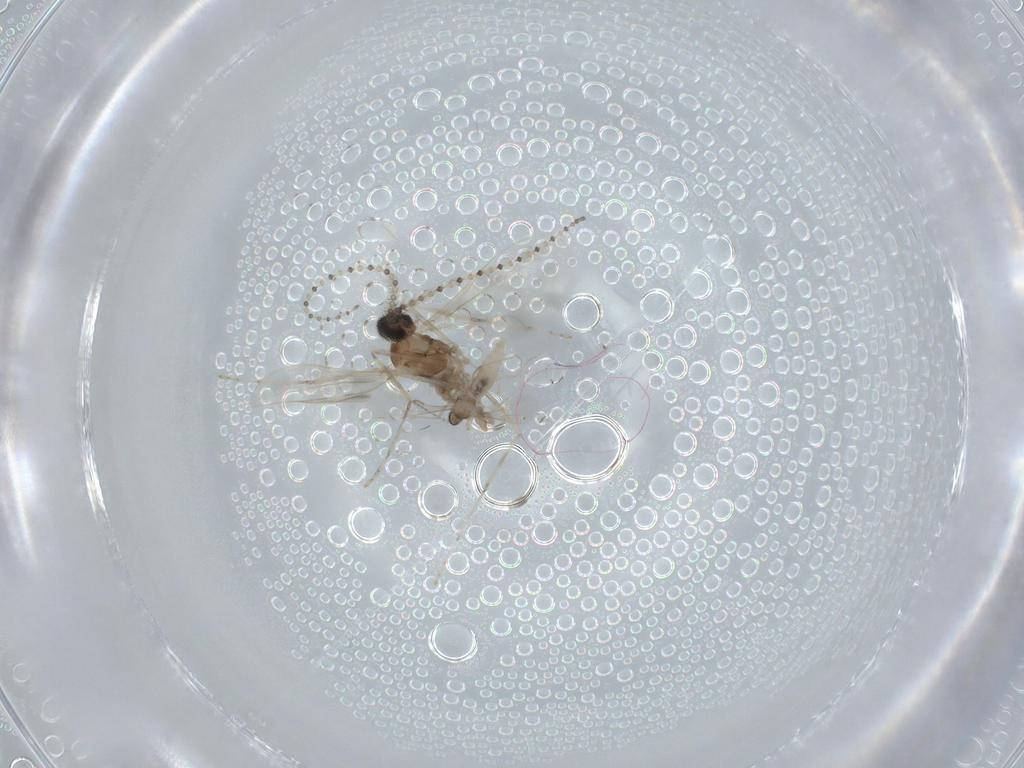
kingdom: Animalia
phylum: Arthropoda
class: Insecta
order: Diptera
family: Cecidomyiidae
